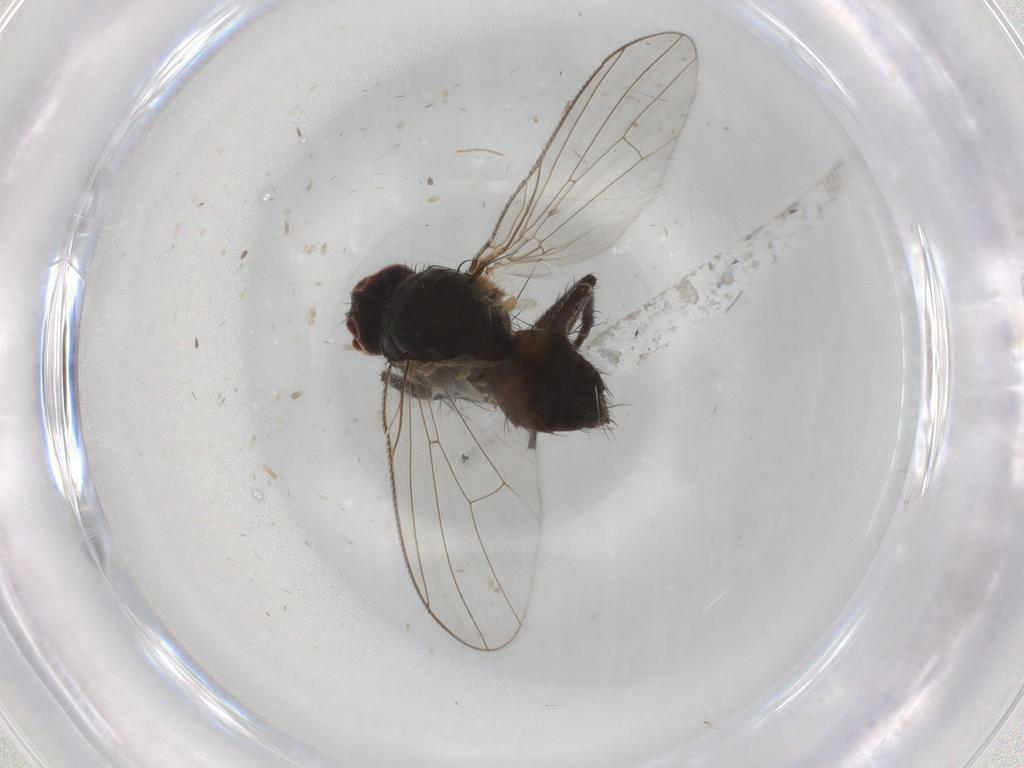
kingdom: Animalia
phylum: Arthropoda
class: Insecta
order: Diptera
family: Muscidae
